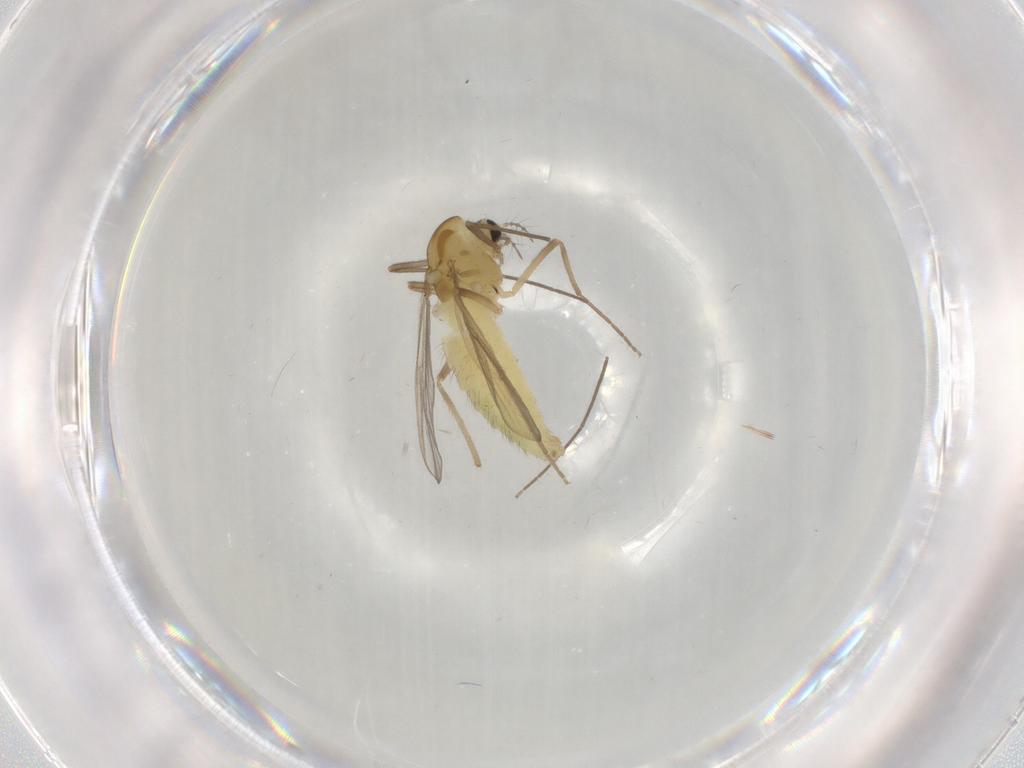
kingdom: Animalia
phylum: Arthropoda
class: Insecta
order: Diptera
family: Chironomidae
